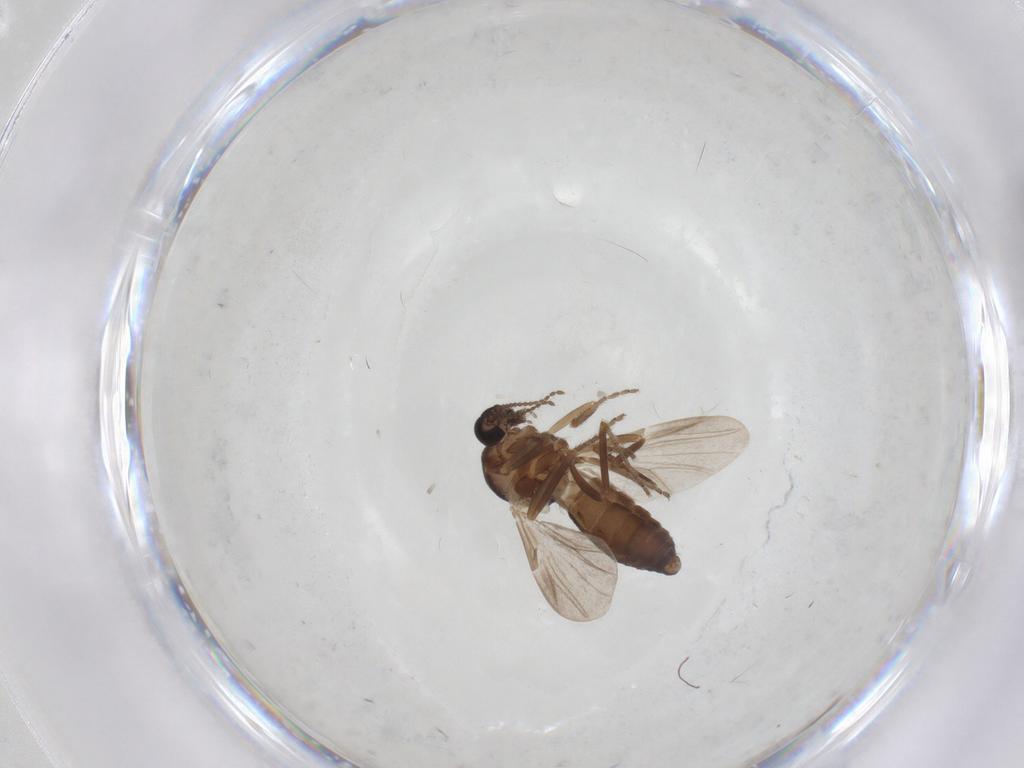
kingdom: Animalia
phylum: Arthropoda
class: Insecta
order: Diptera
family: Ceratopogonidae
